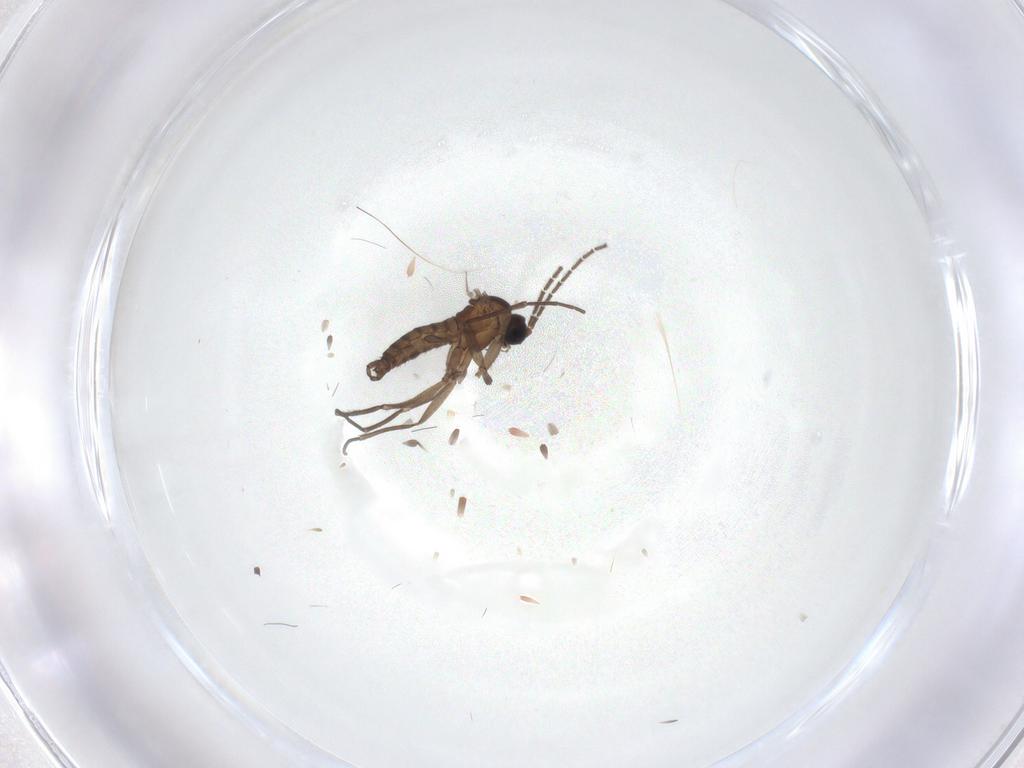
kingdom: Animalia
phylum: Arthropoda
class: Insecta
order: Diptera
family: Sciaridae
